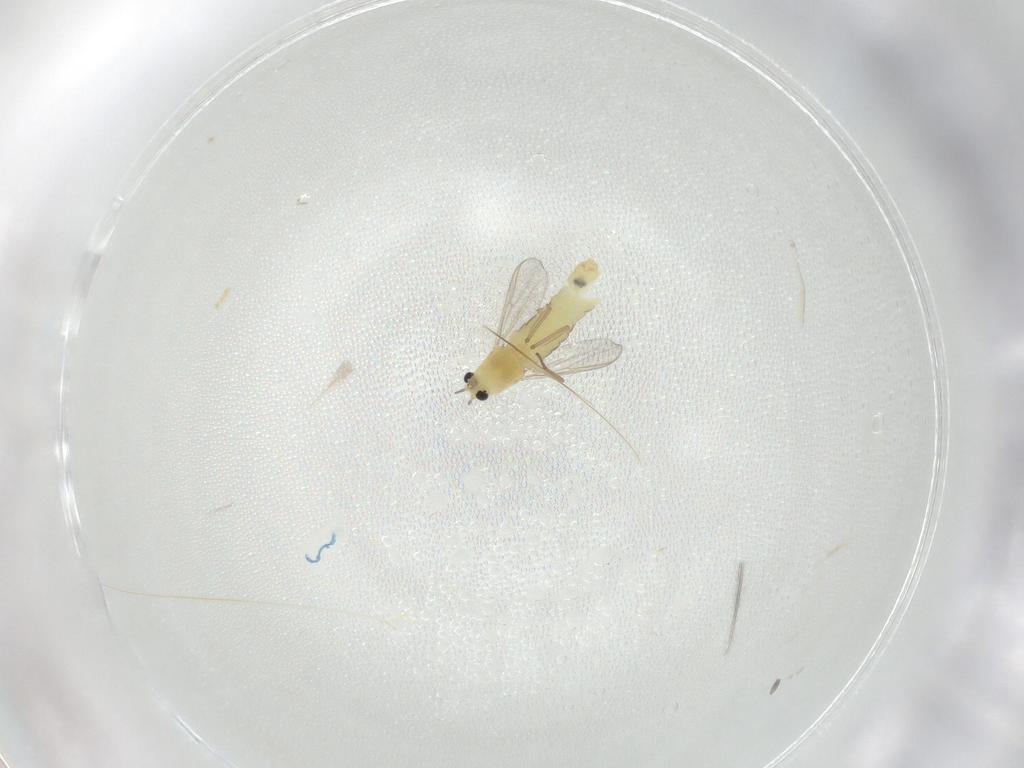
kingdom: Animalia
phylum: Arthropoda
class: Insecta
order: Diptera
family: Chironomidae
